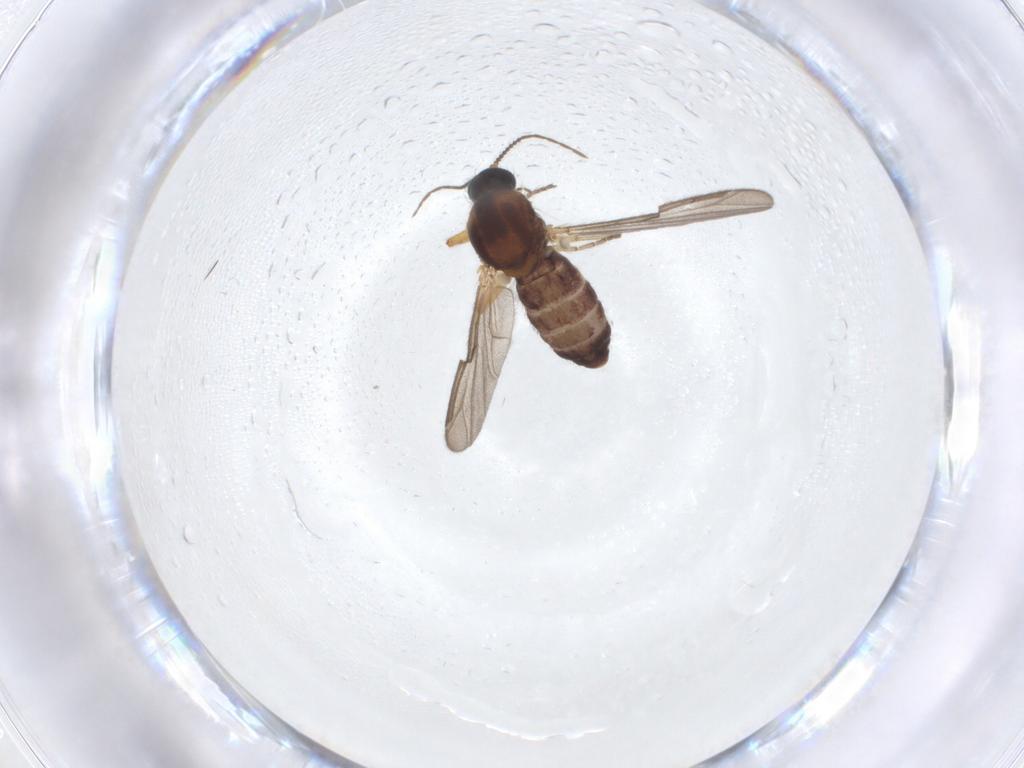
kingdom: Animalia
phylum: Arthropoda
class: Insecta
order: Diptera
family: Ceratopogonidae
